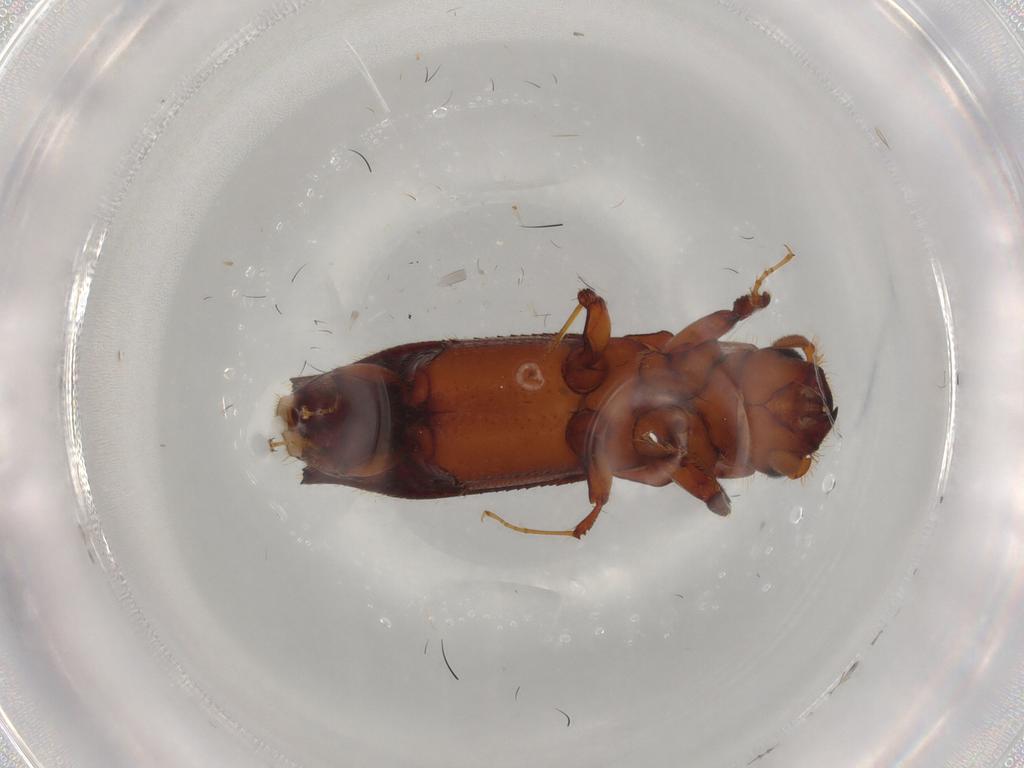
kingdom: Animalia
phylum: Arthropoda
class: Insecta
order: Coleoptera
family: Curculionidae
